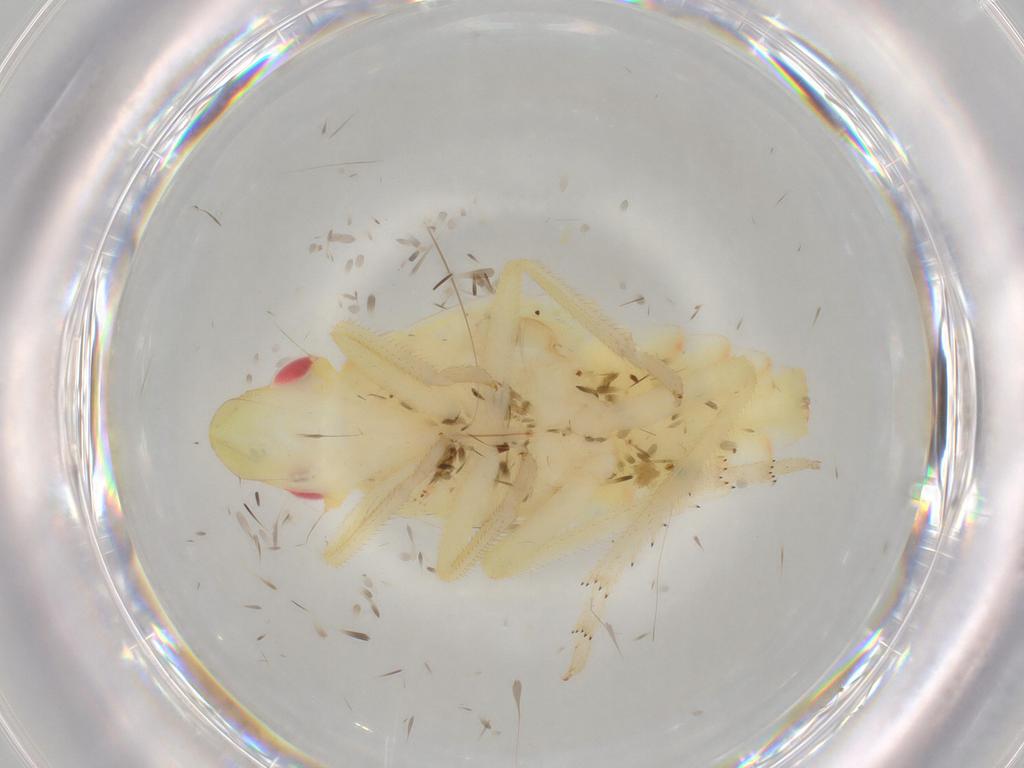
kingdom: Animalia
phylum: Arthropoda
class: Insecta
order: Hemiptera
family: Tropiduchidae
